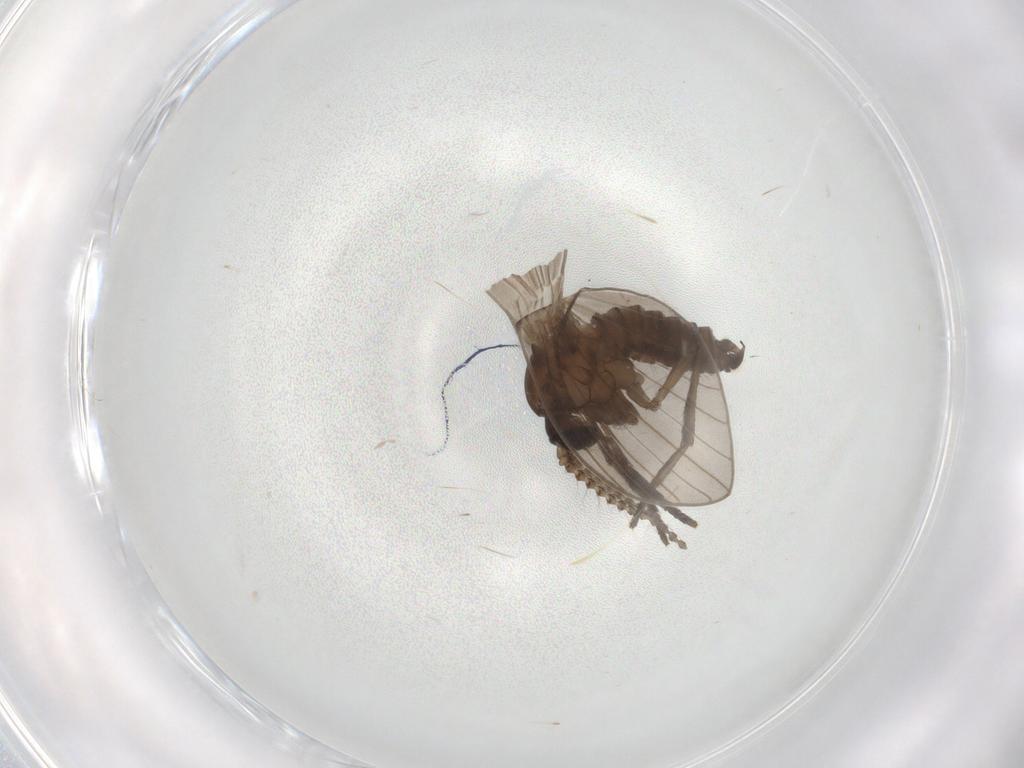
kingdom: Animalia
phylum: Arthropoda
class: Insecta
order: Diptera
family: Psychodidae
